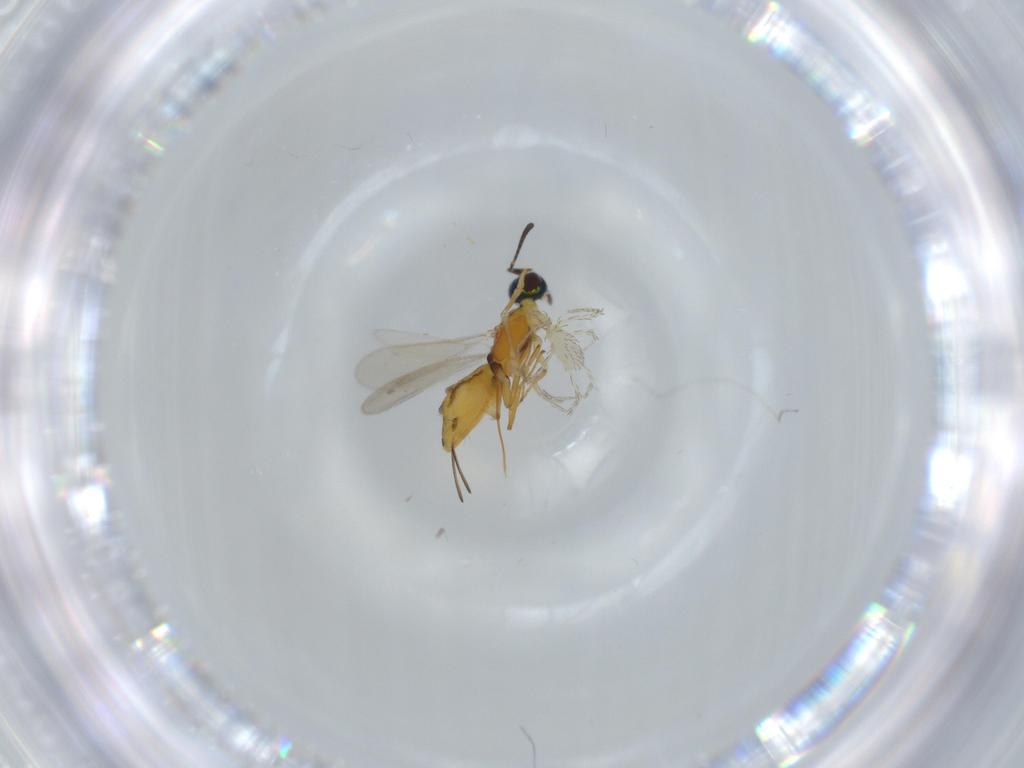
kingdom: Animalia
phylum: Arthropoda
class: Insecta
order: Hymenoptera
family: Eupelmidae
